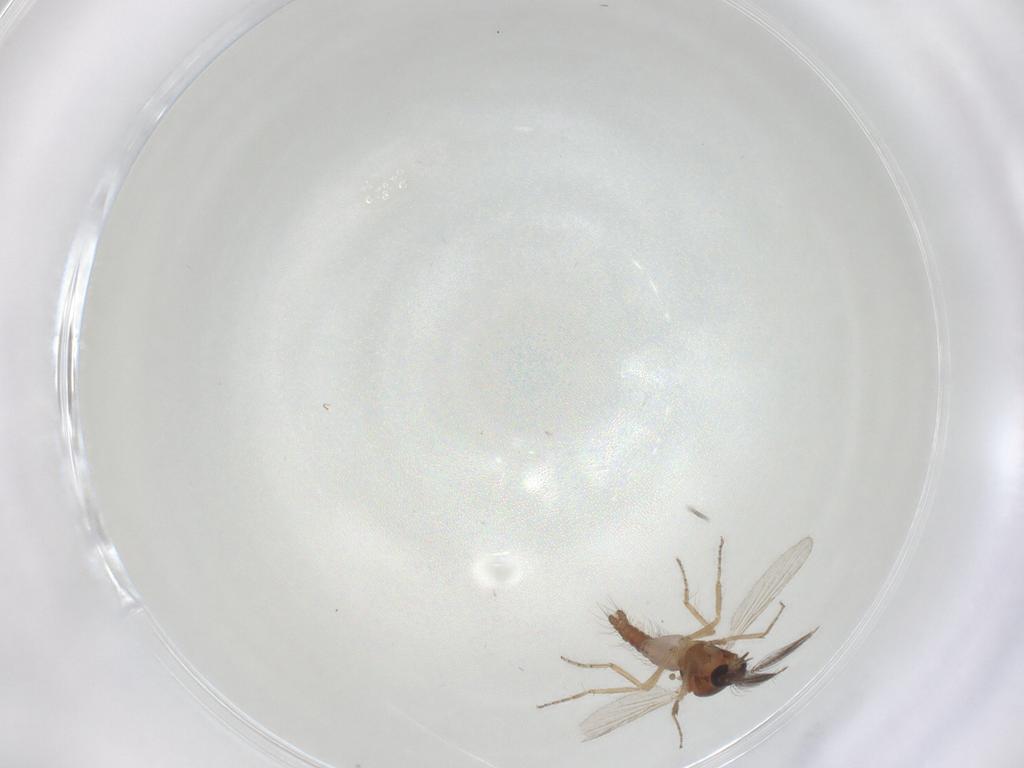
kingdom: Animalia
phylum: Arthropoda
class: Insecta
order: Diptera
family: Ceratopogonidae
